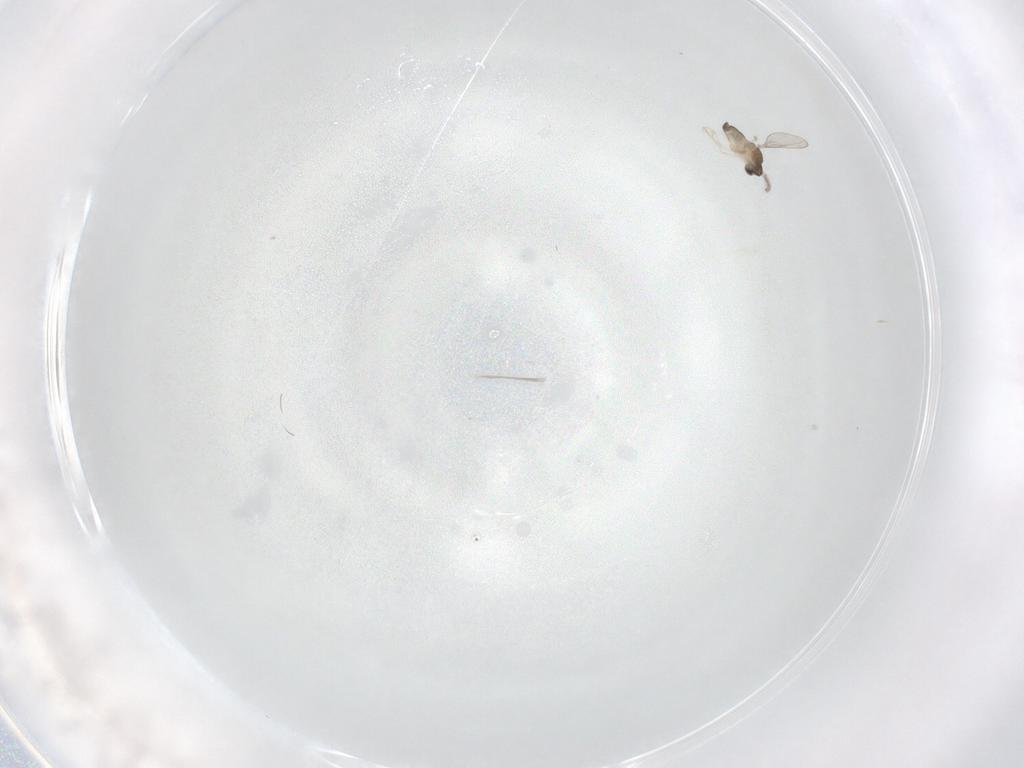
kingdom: Animalia
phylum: Arthropoda
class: Insecta
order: Diptera
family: Cecidomyiidae
